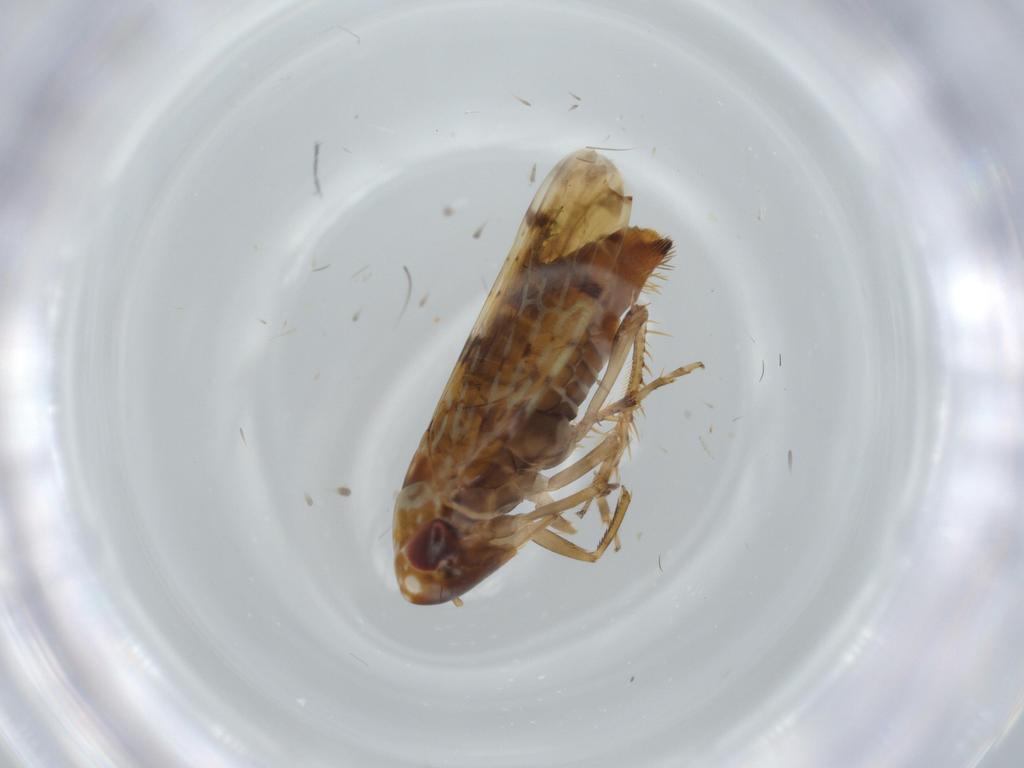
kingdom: Animalia
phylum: Arthropoda
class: Insecta
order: Hemiptera
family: Cicadellidae
